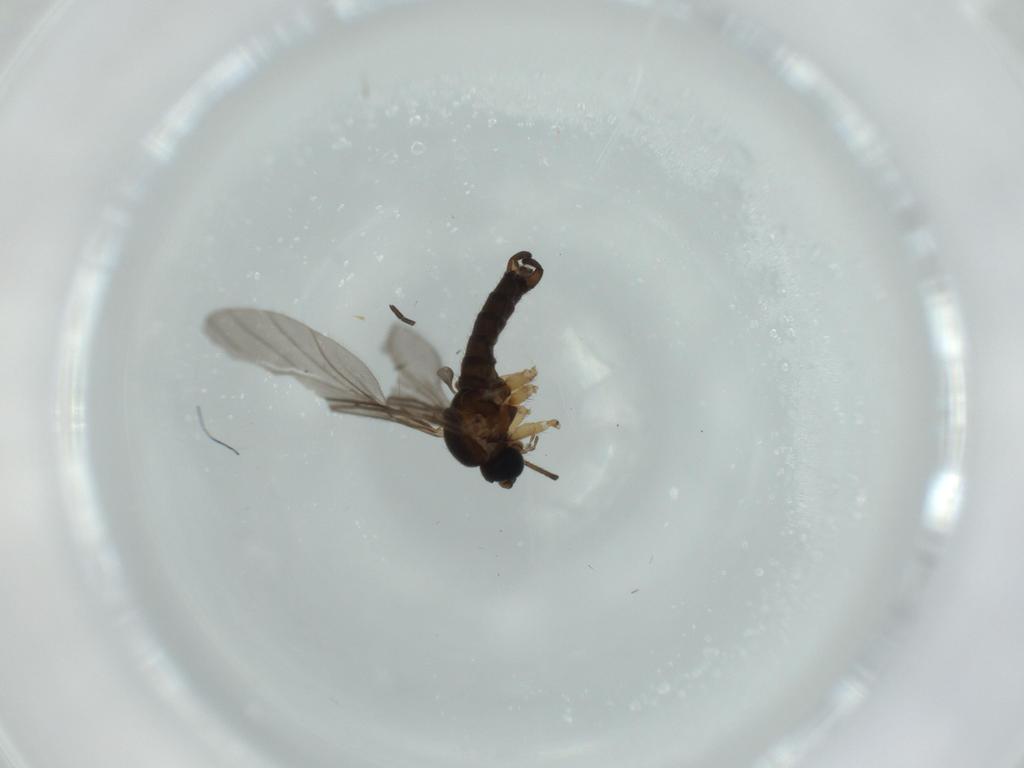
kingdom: Animalia
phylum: Arthropoda
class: Insecta
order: Diptera
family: Sciaridae
